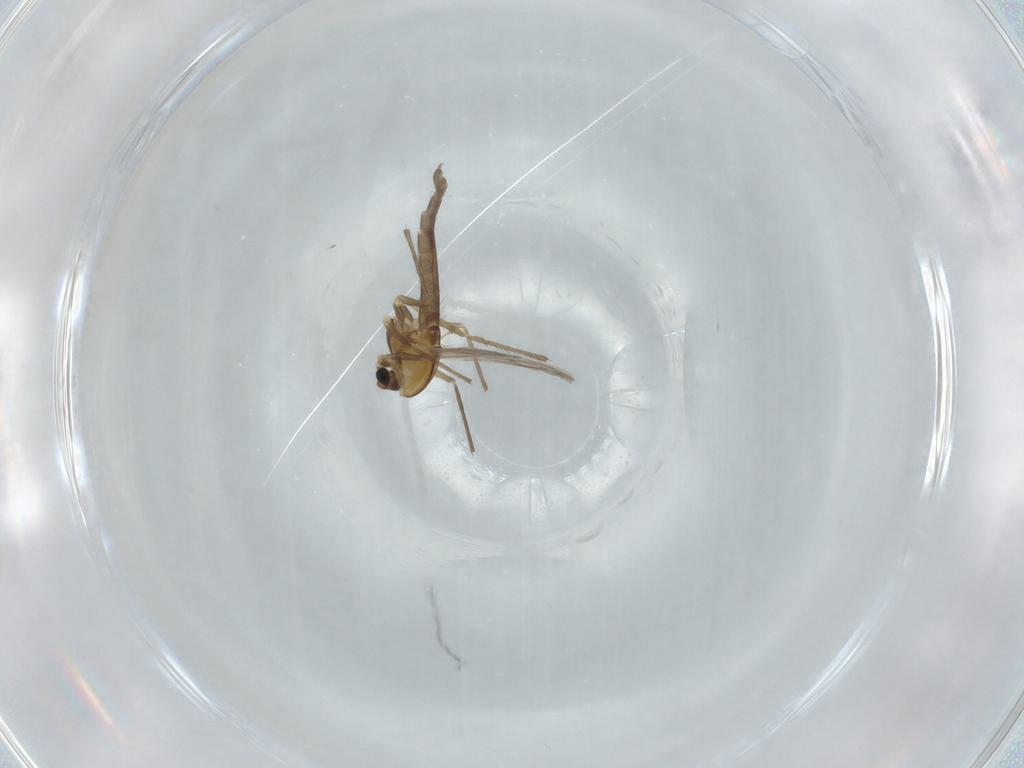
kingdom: Animalia
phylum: Arthropoda
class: Insecta
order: Diptera
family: Chironomidae
